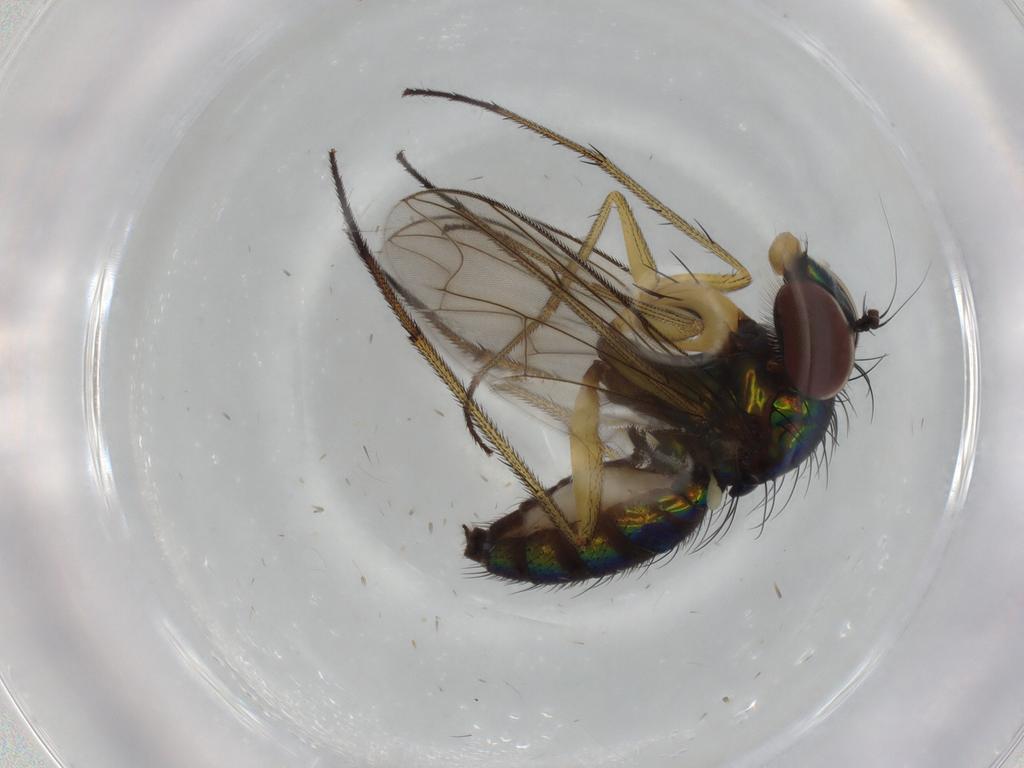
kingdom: Animalia
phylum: Arthropoda
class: Insecta
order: Diptera
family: Dolichopodidae
